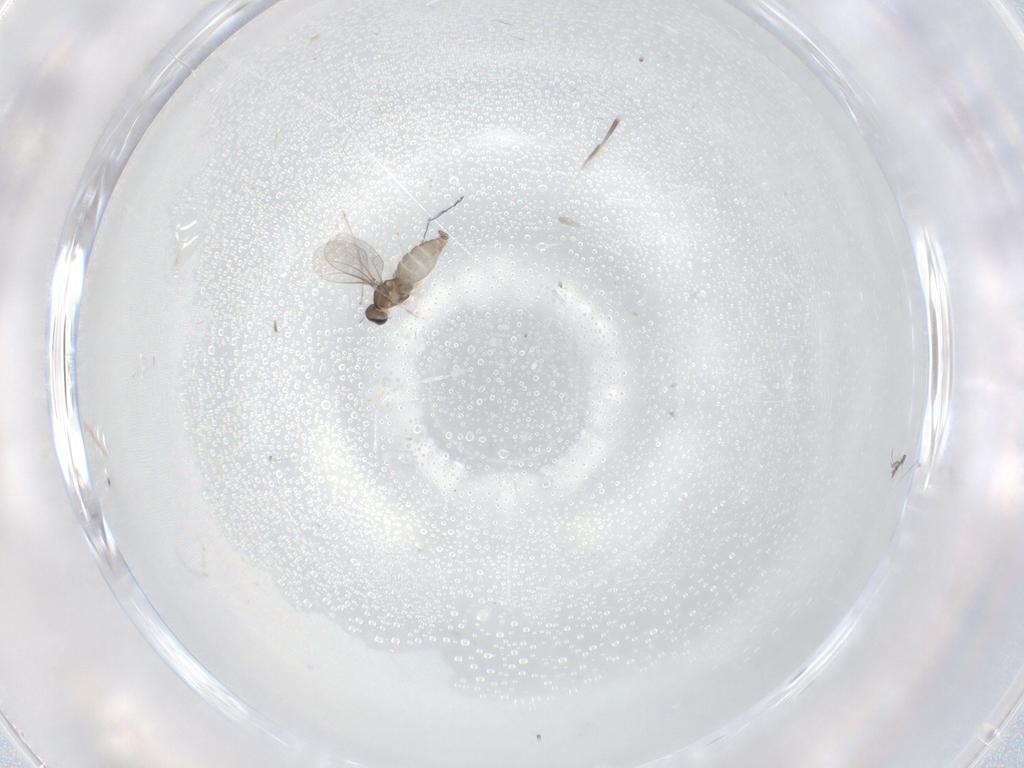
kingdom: Animalia
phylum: Arthropoda
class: Insecta
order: Diptera
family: Cecidomyiidae
